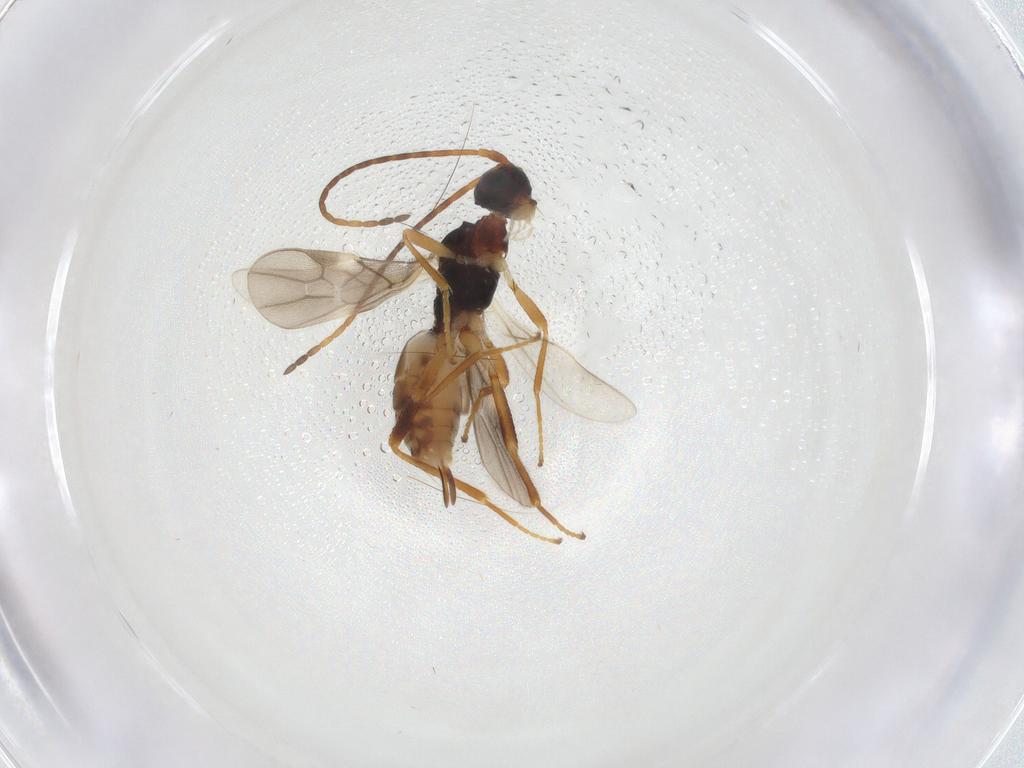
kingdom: Animalia
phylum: Arthropoda
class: Insecta
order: Hymenoptera
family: Braconidae
